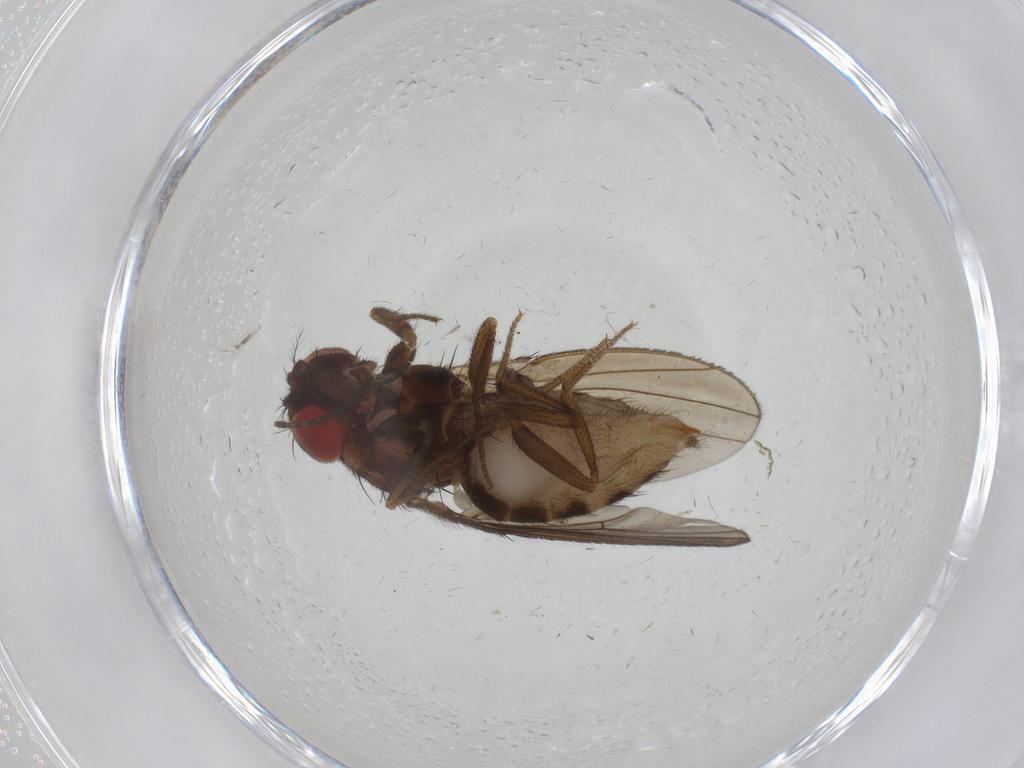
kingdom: Animalia
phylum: Arthropoda
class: Insecta
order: Diptera
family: Drosophilidae
